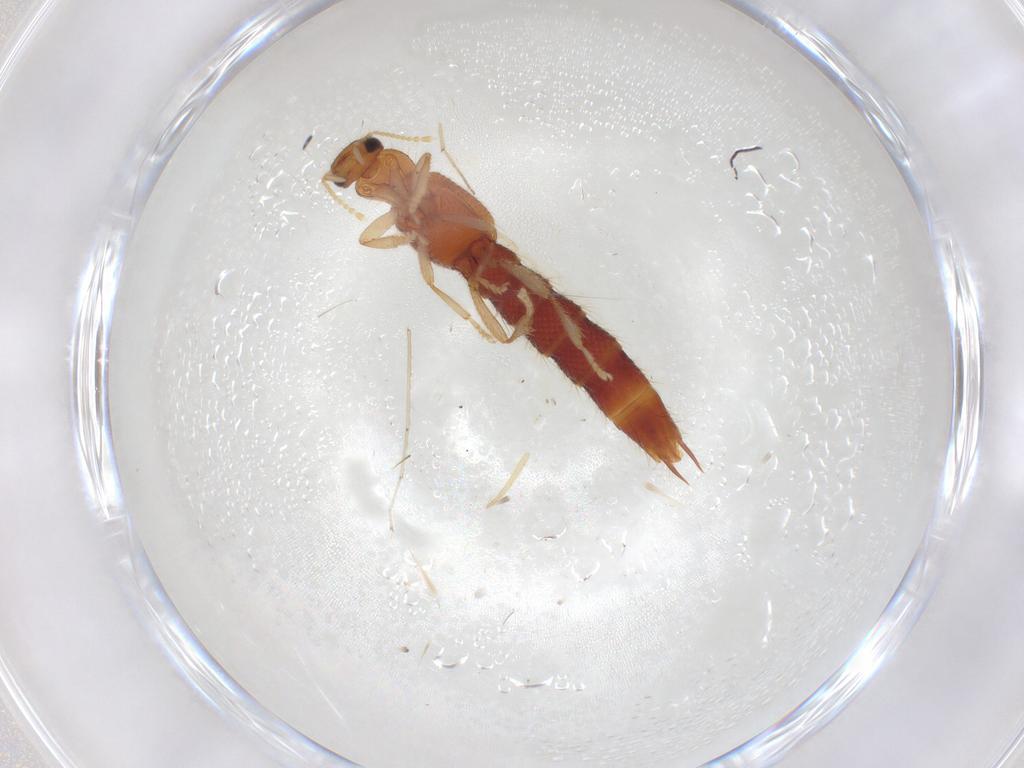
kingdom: Animalia
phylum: Arthropoda
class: Insecta
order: Coleoptera
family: Staphylinidae
